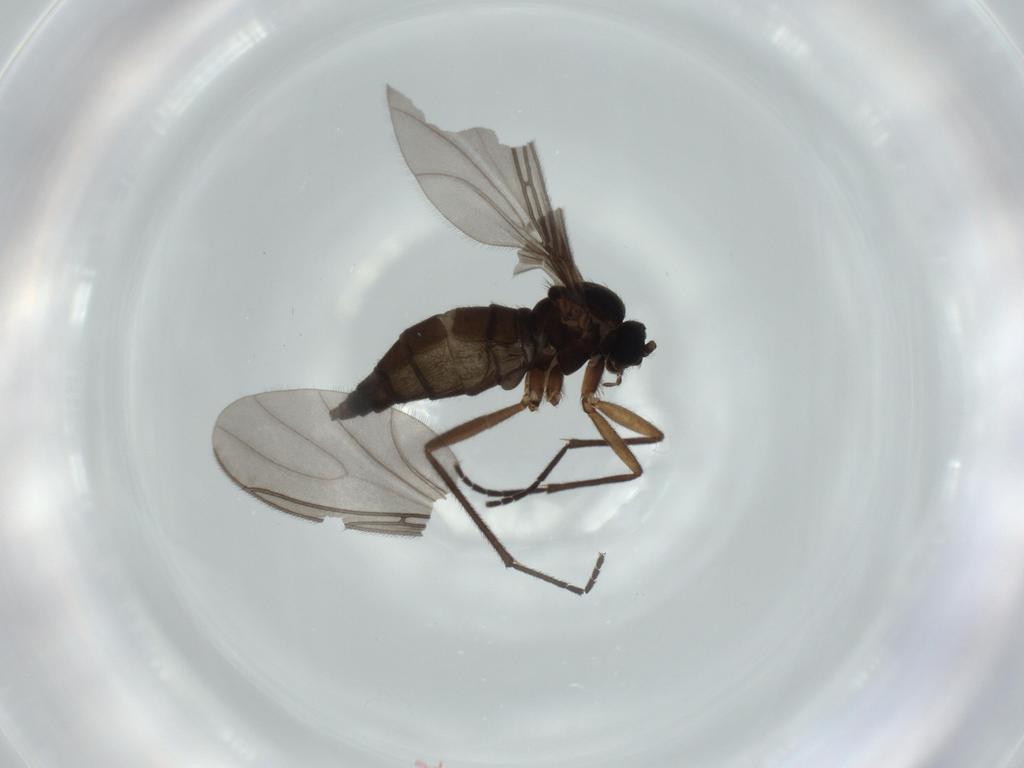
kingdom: Animalia
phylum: Arthropoda
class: Insecta
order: Diptera
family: Sciaridae
